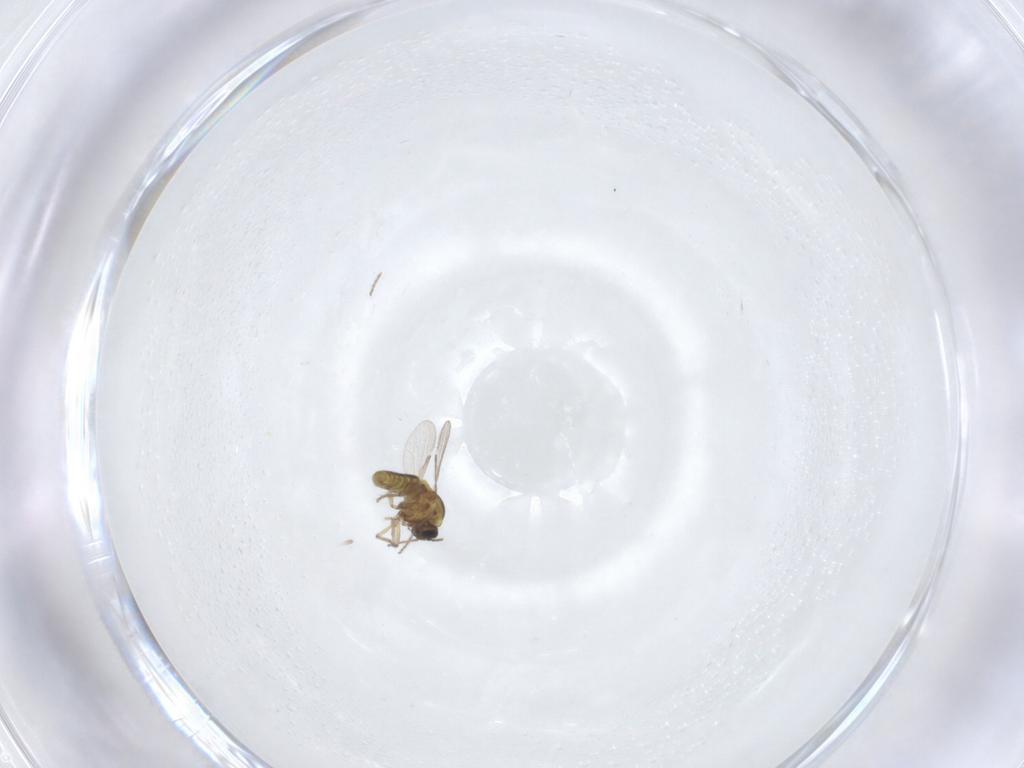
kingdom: Animalia
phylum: Arthropoda
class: Insecta
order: Diptera
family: Ceratopogonidae
